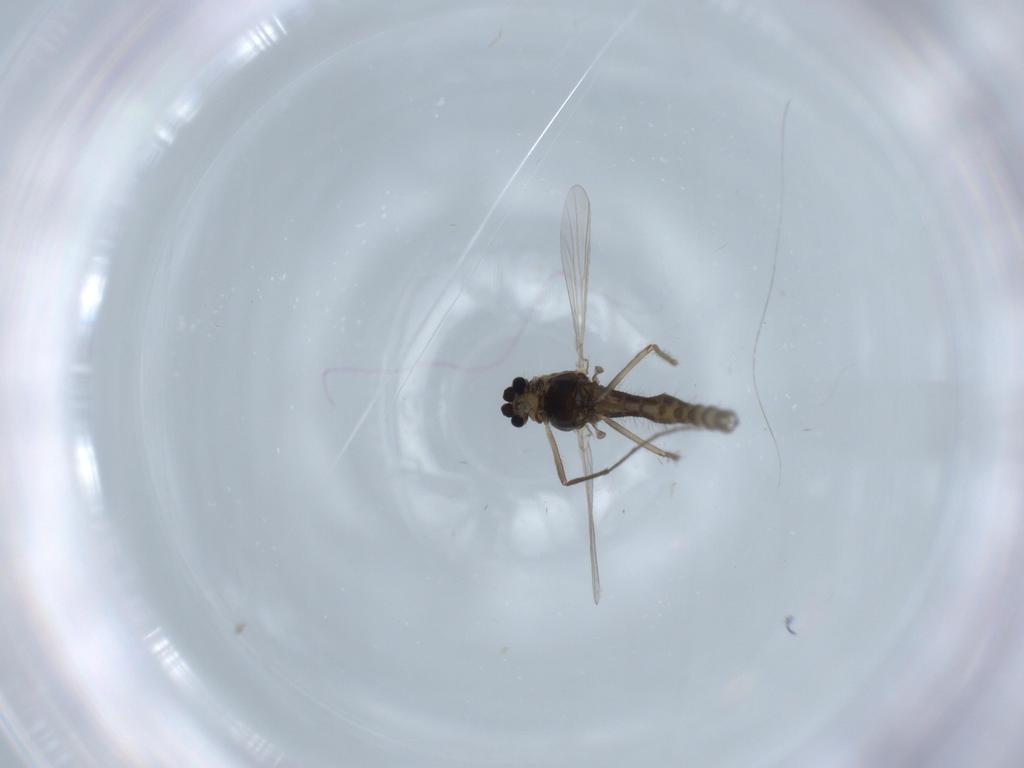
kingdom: Animalia
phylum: Arthropoda
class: Insecta
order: Diptera
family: Chironomidae
